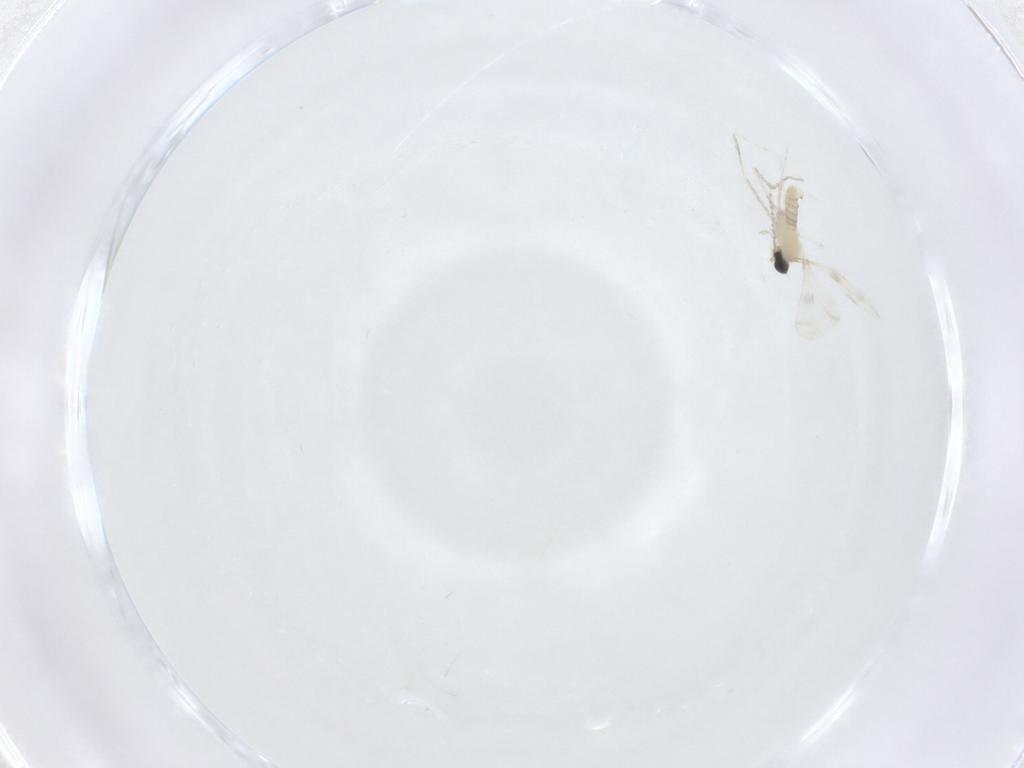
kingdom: Animalia
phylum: Arthropoda
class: Insecta
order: Diptera
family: Cecidomyiidae
